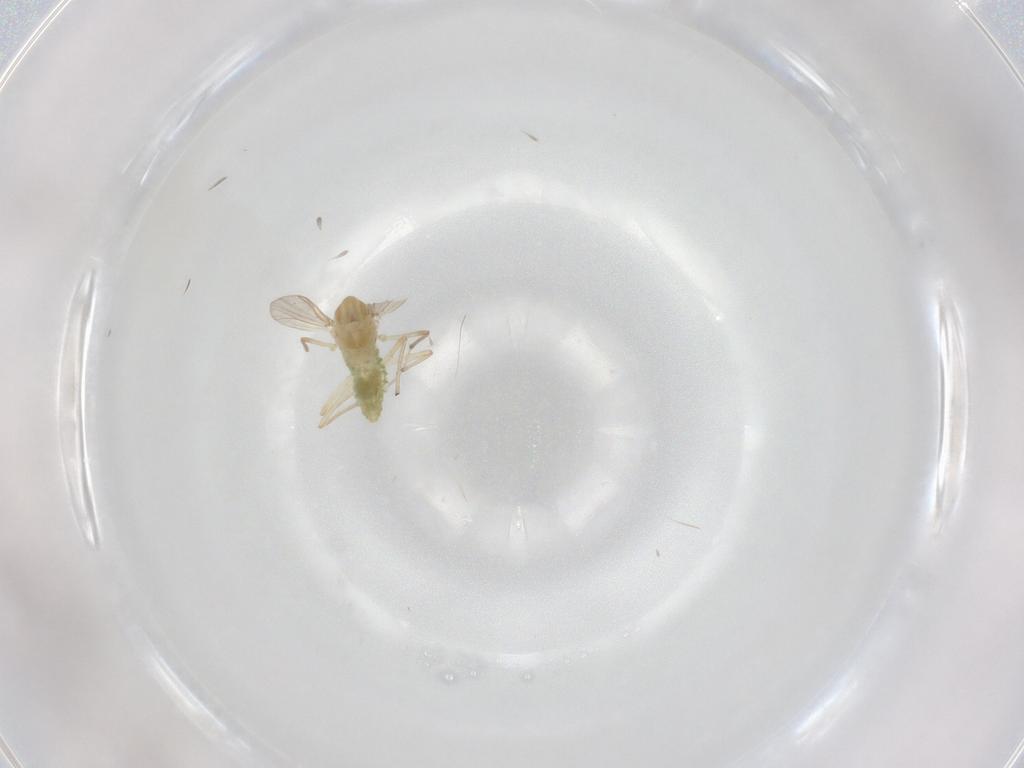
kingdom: Animalia
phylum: Arthropoda
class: Insecta
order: Diptera
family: Chironomidae
